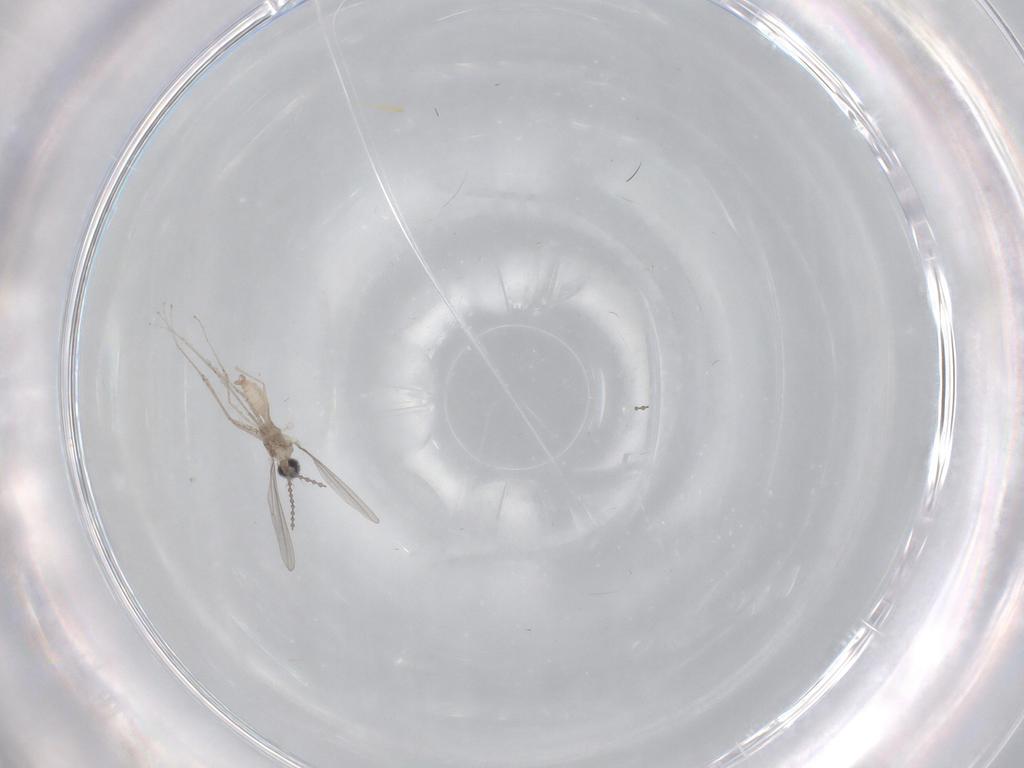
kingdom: Animalia
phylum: Arthropoda
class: Insecta
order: Diptera
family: Cecidomyiidae
